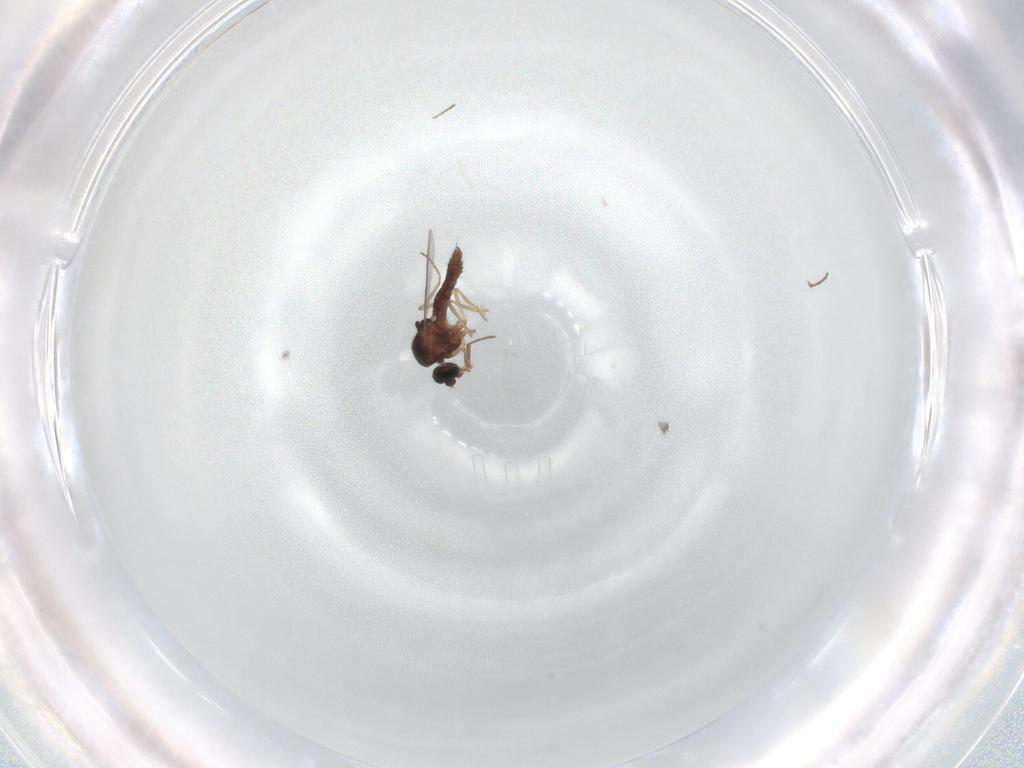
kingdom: Animalia
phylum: Arthropoda
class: Insecta
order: Diptera
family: Ceratopogonidae
